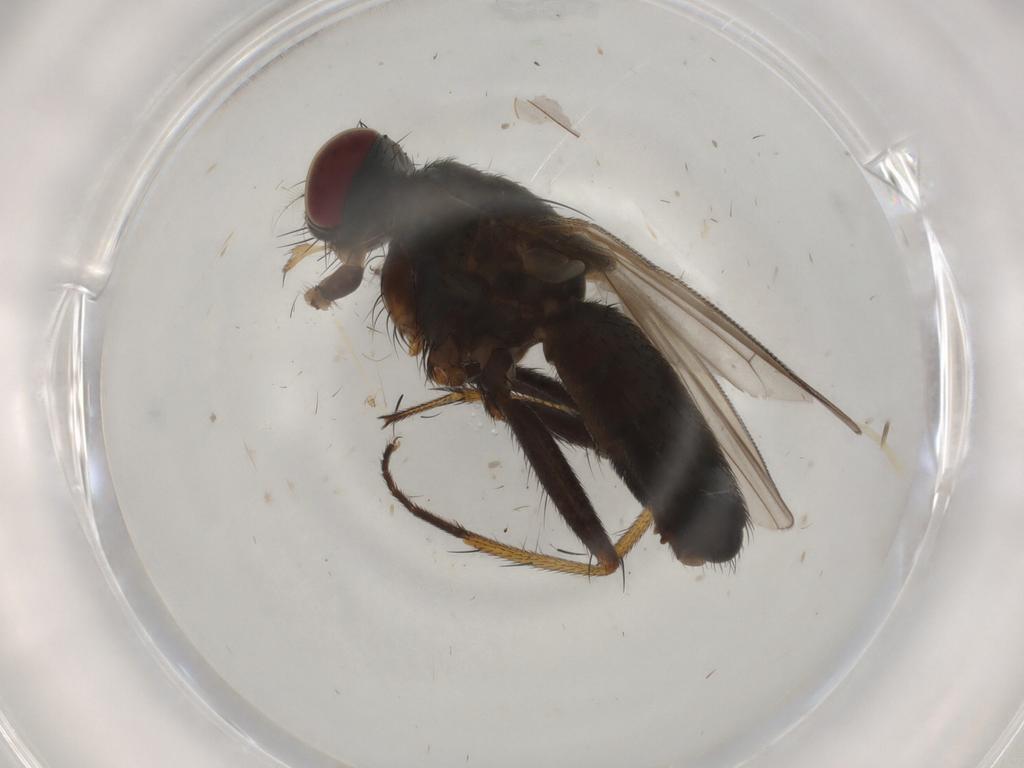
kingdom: Animalia
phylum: Arthropoda
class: Insecta
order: Diptera
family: Muscidae
